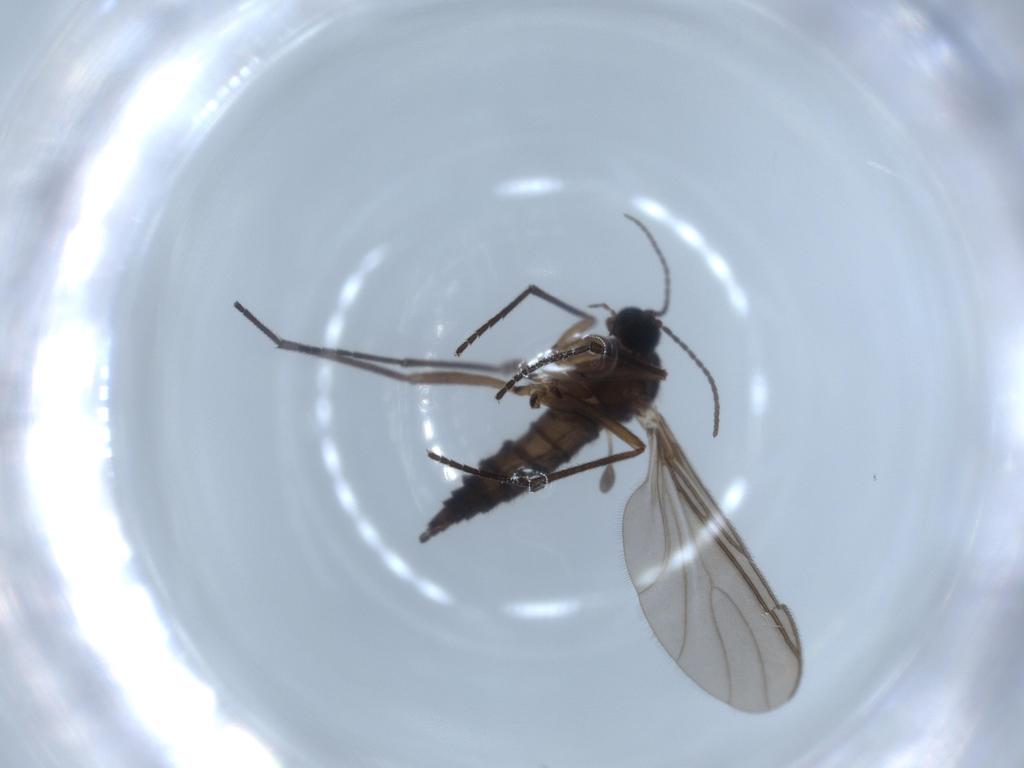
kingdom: Animalia
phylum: Arthropoda
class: Insecta
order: Diptera
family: Sciaridae
